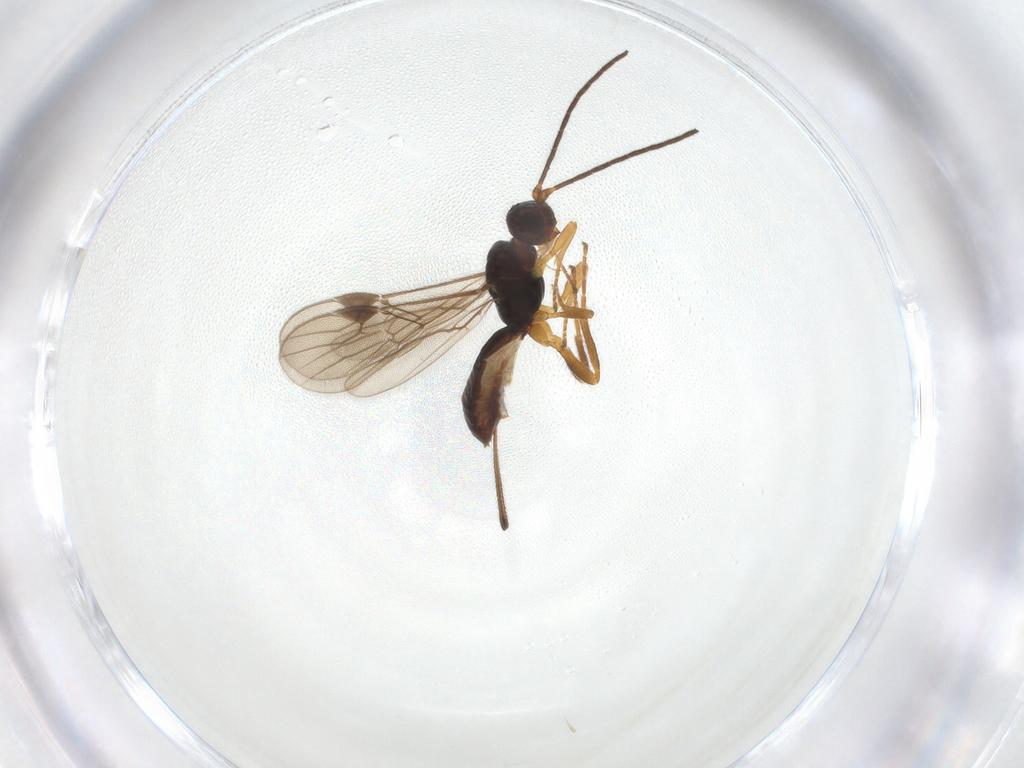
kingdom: Animalia
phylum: Arthropoda
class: Insecta
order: Hymenoptera
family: Braconidae
